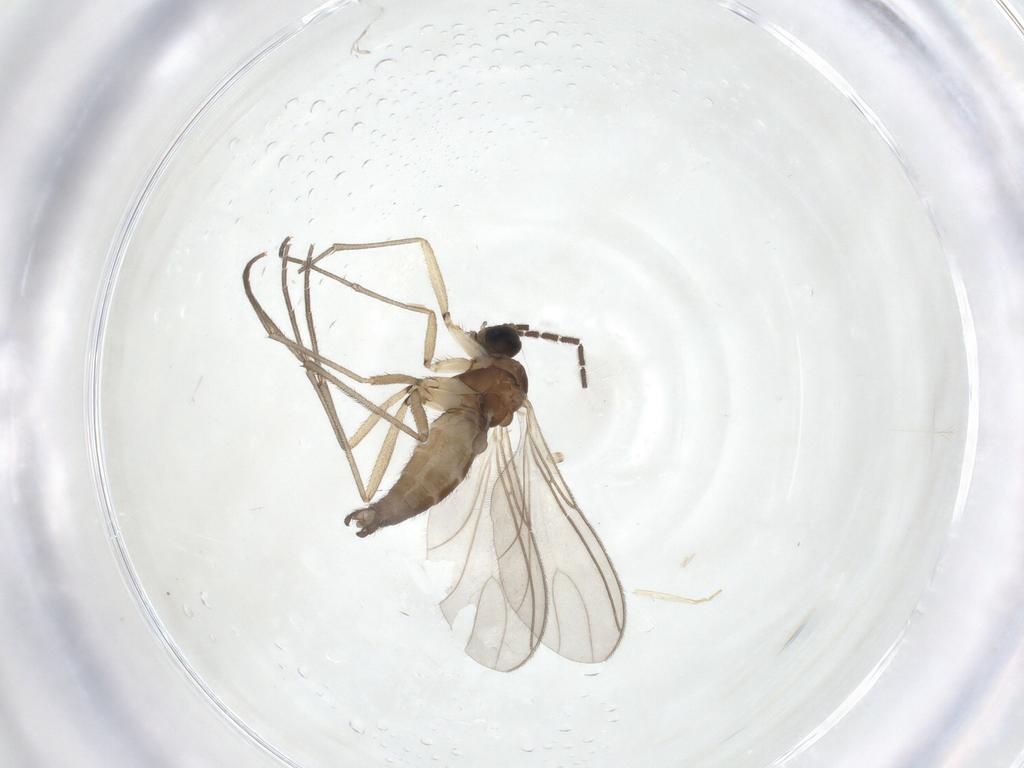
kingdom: Animalia
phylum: Arthropoda
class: Insecta
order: Diptera
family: Sciaridae
